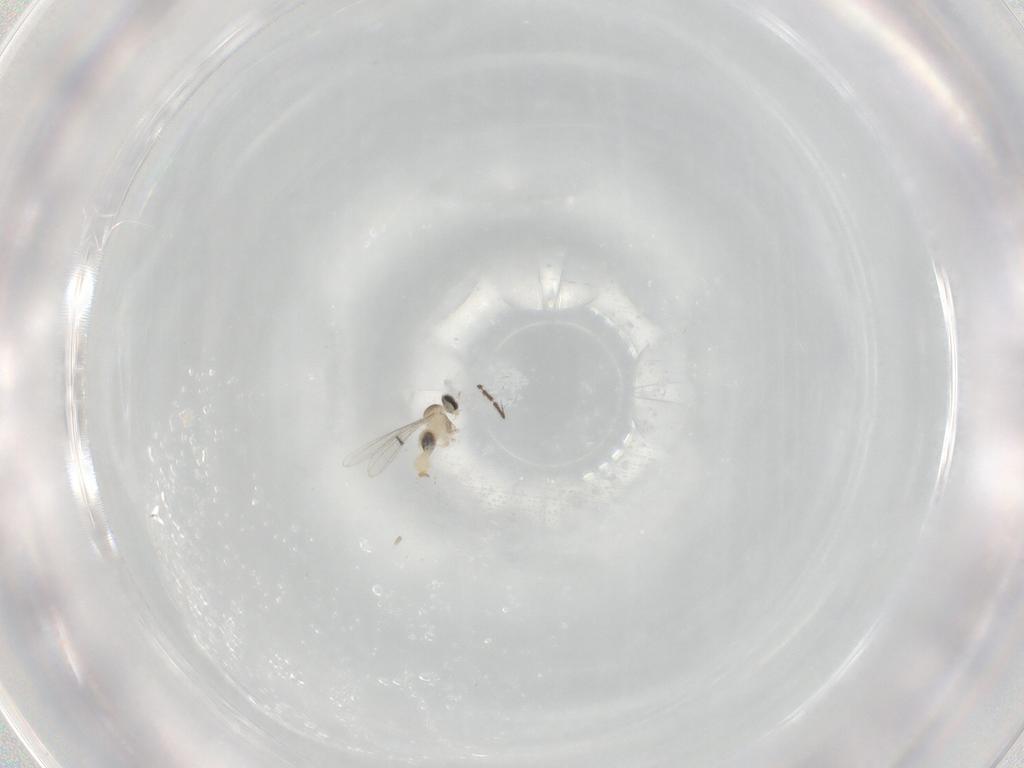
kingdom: Animalia
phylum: Arthropoda
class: Insecta
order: Diptera
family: Cecidomyiidae
